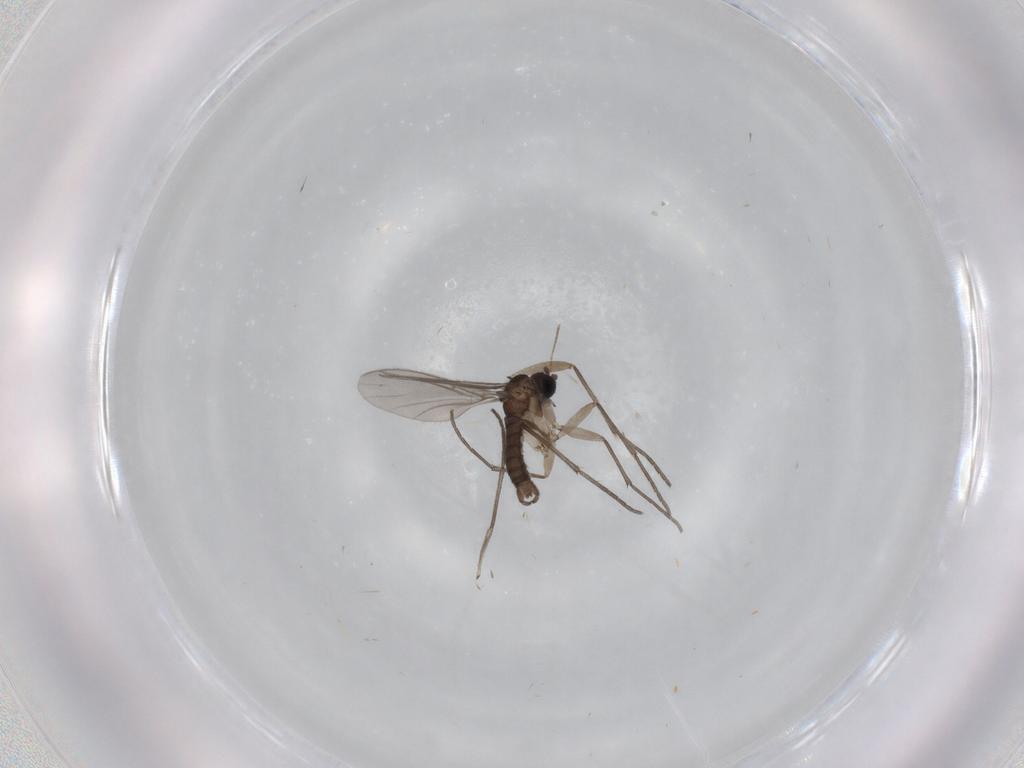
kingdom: Animalia
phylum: Arthropoda
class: Insecta
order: Diptera
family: Sciaridae
